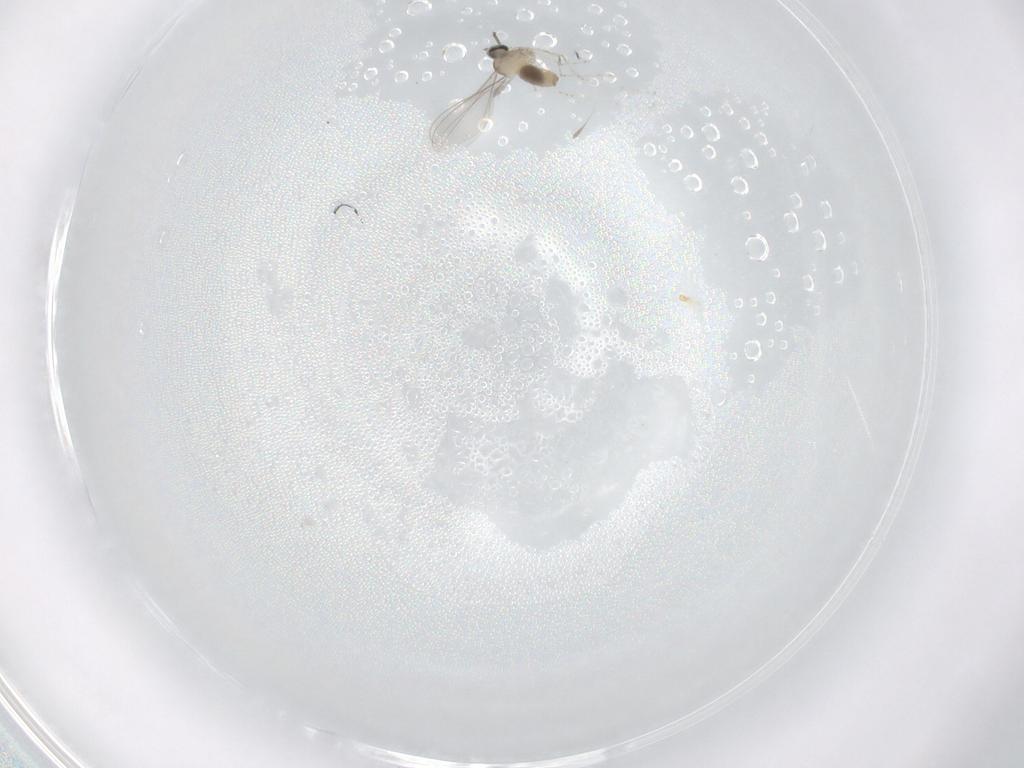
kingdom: Animalia
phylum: Arthropoda
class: Insecta
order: Diptera
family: Cecidomyiidae
